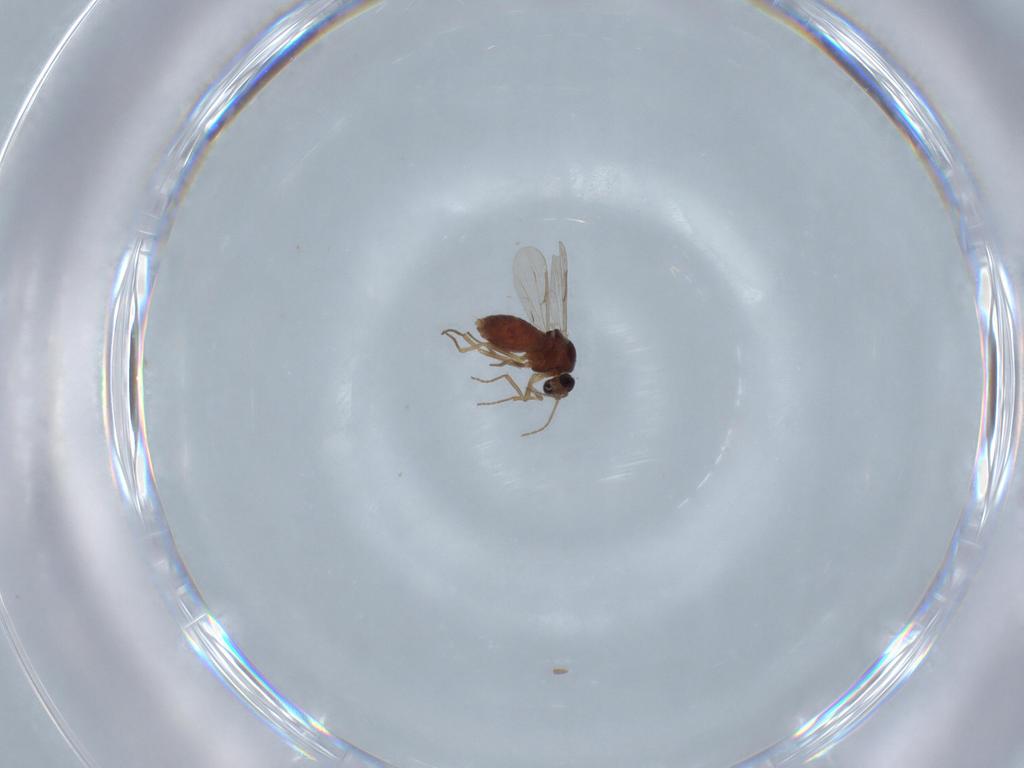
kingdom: Animalia
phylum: Arthropoda
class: Insecta
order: Diptera
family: Ceratopogonidae
